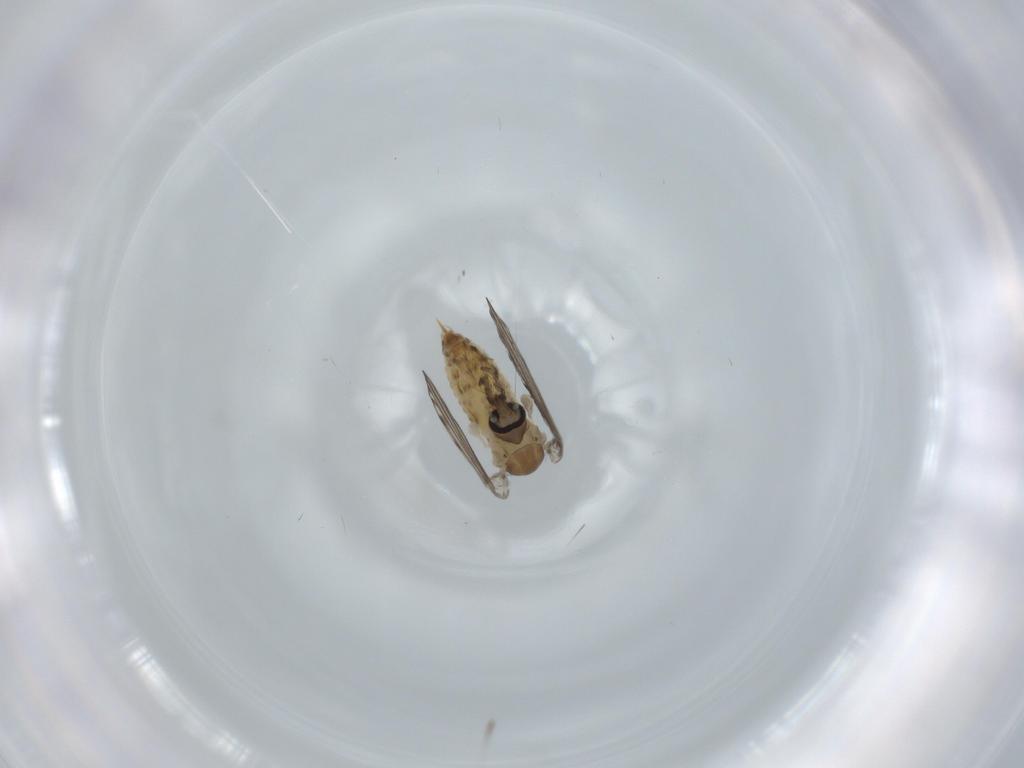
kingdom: Animalia
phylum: Arthropoda
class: Insecta
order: Diptera
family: Psychodidae
